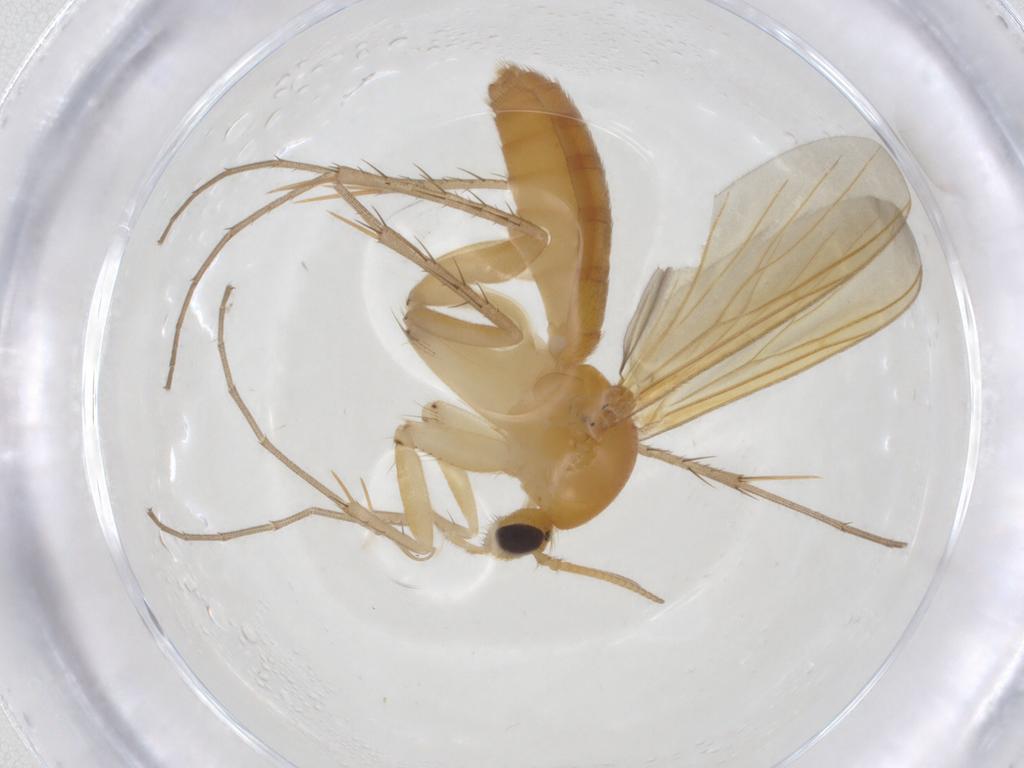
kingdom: Animalia
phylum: Arthropoda
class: Insecta
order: Diptera
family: Mycetophilidae
